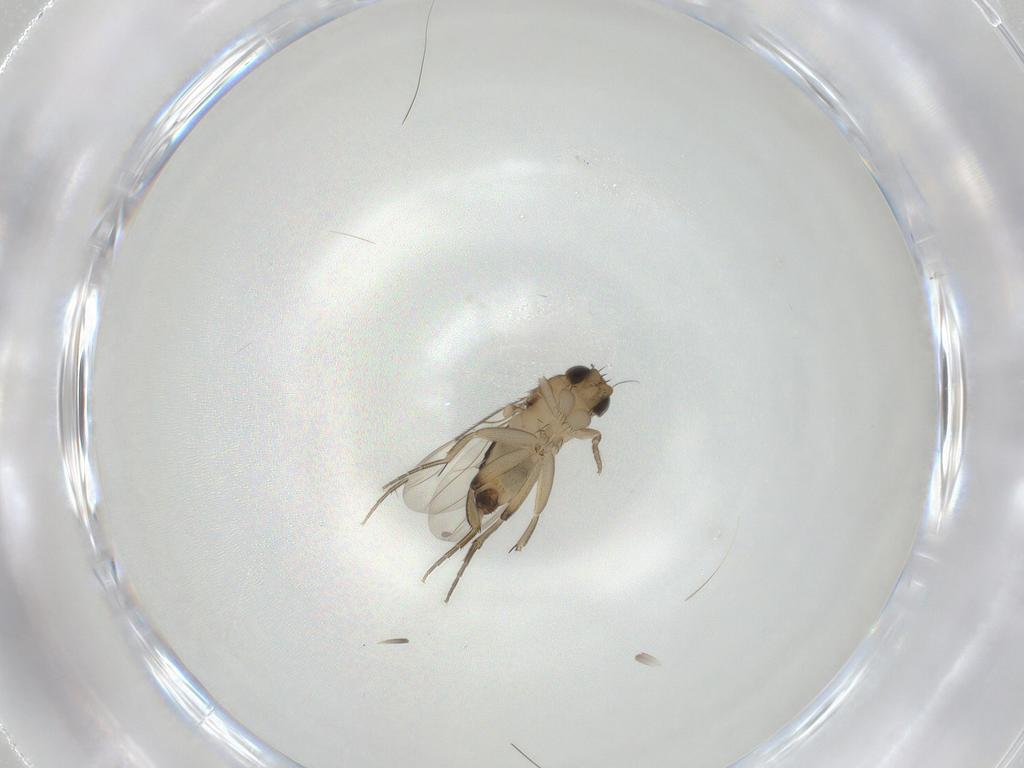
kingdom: Animalia
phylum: Arthropoda
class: Insecta
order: Diptera
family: Phoridae
